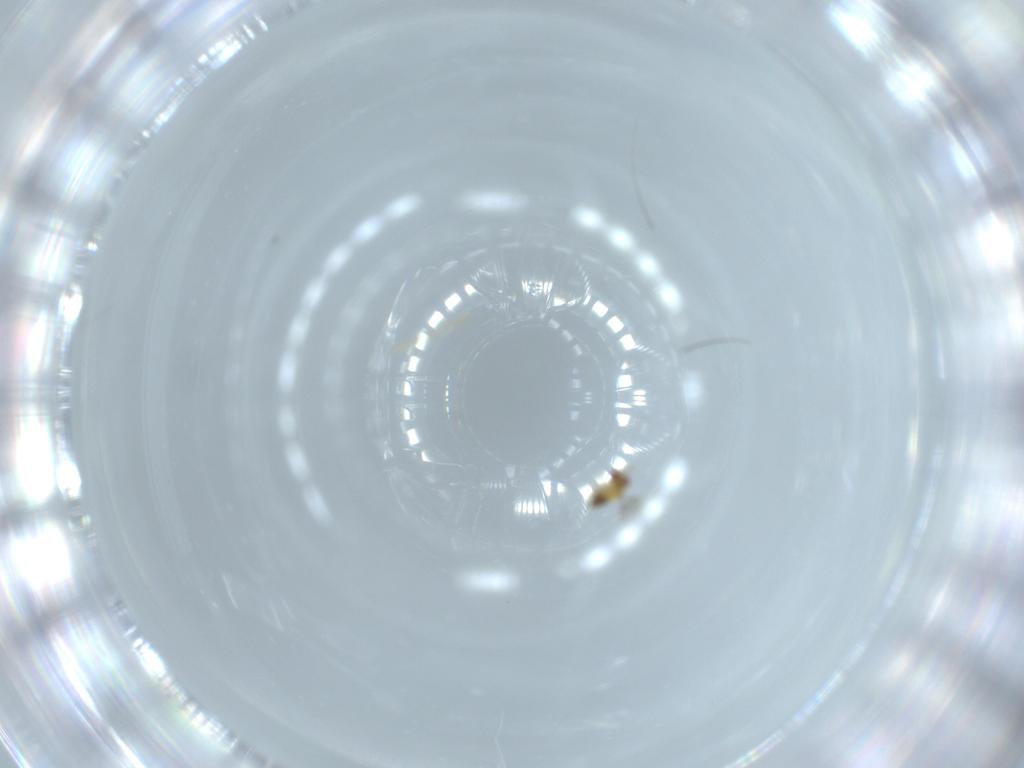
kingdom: Animalia
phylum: Arthropoda
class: Insecta
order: Hymenoptera
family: Trichogrammatidae
